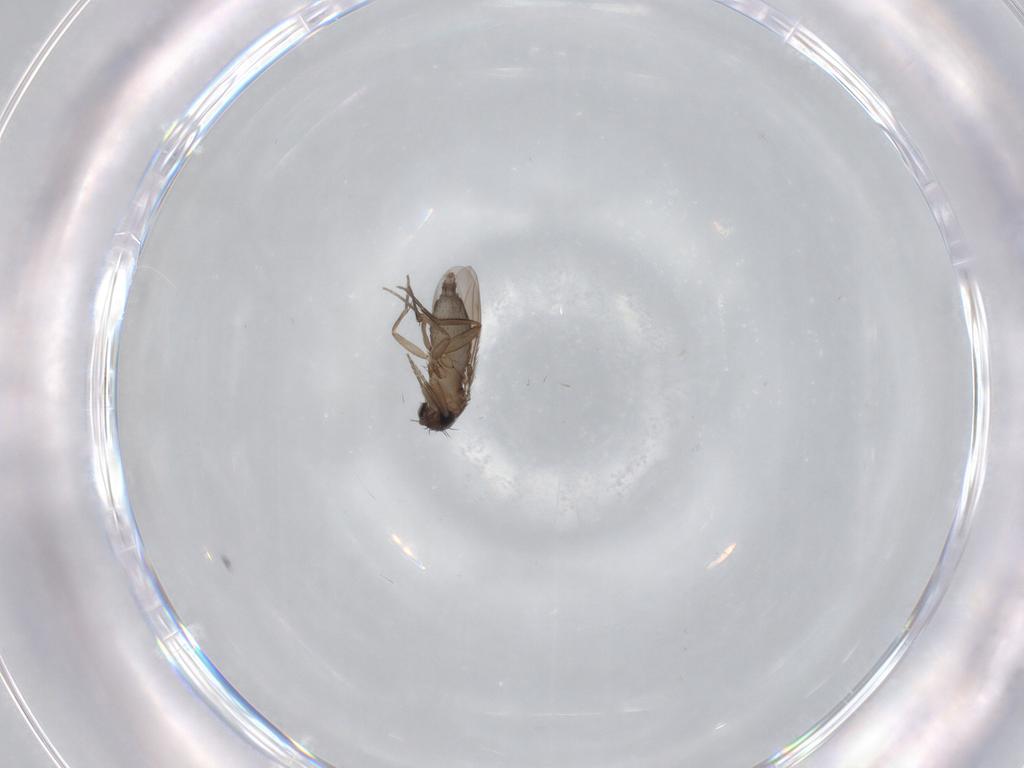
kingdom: Animalia
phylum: Arthropoda
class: Insecta
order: Diptera
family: Phoridae
